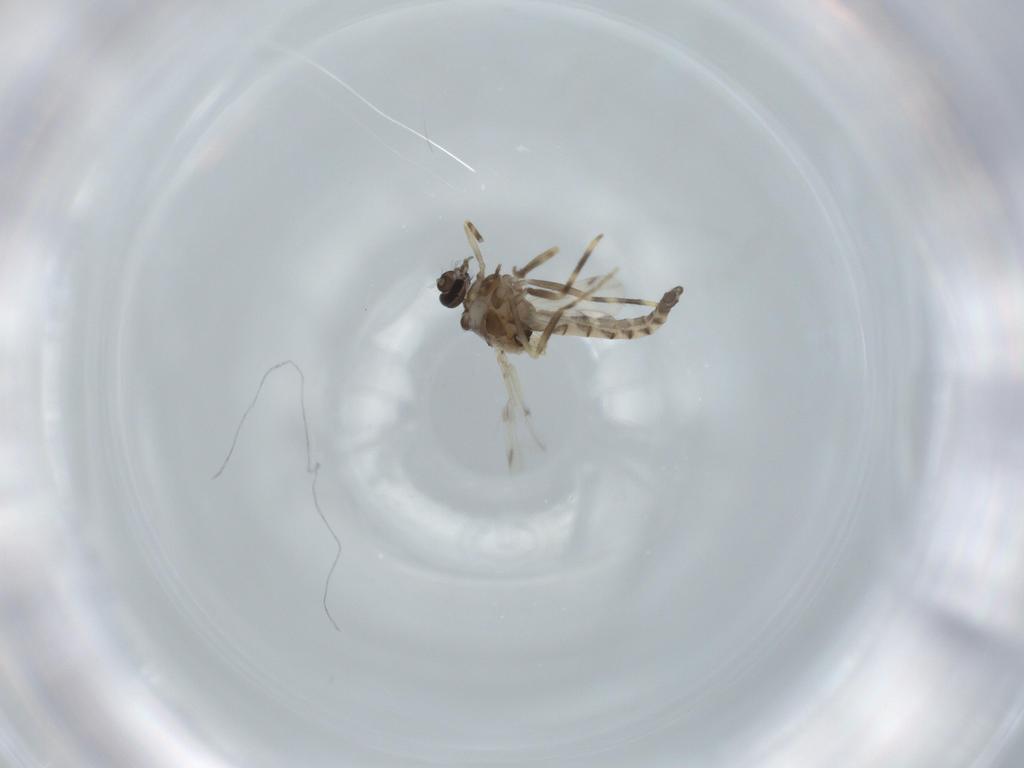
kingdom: Animalia
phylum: Arthropoda
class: Insecta
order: Diptera
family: Ceratopogonidae
